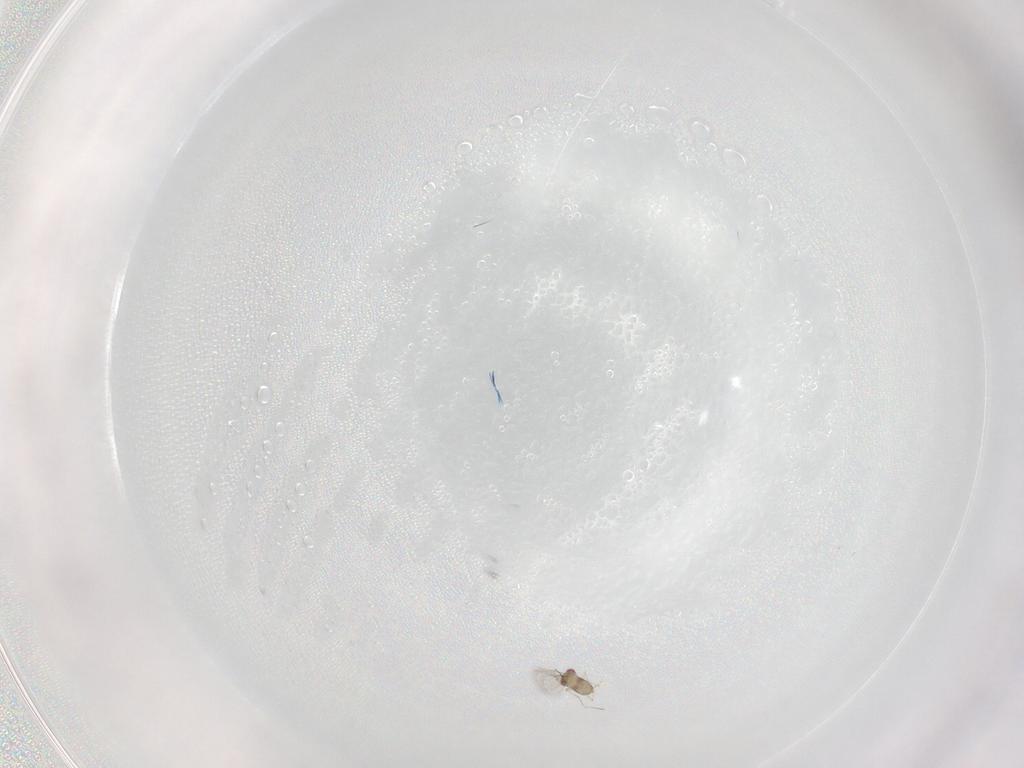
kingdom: Animalia
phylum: Arthropoda
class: Insecta
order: Hymenoptera
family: Trichogrammatidae
